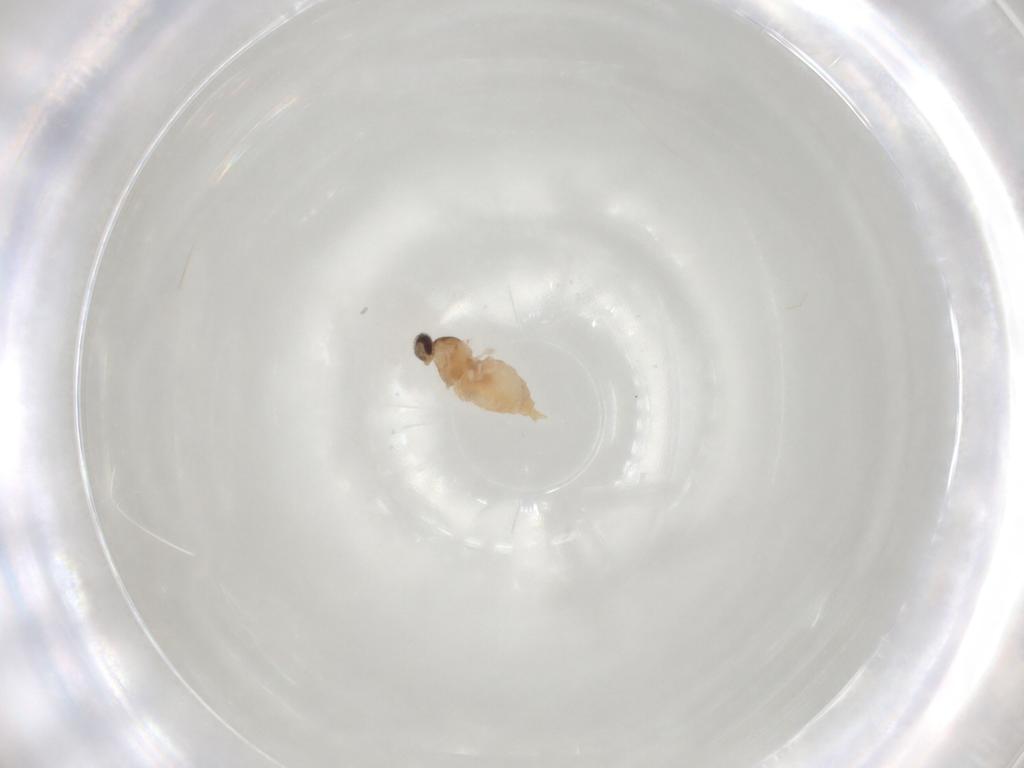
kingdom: Animalia
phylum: Arthropoda
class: Insecta
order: Diptera
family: Cecidomyiidae
